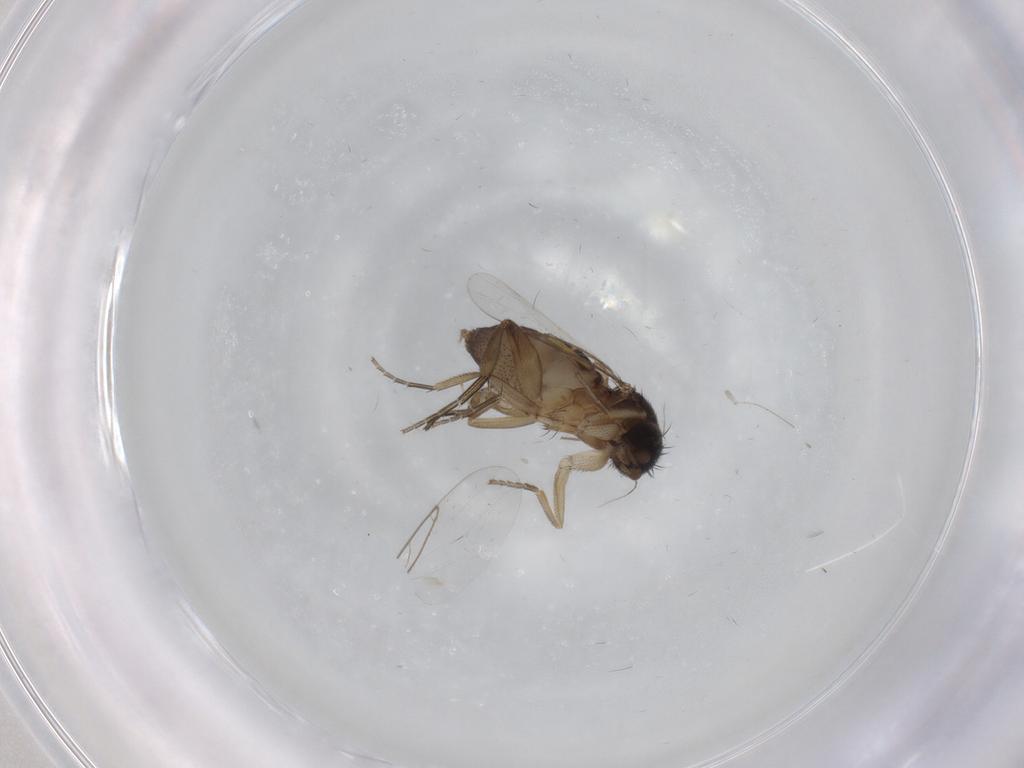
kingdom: Animalia
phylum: Arthropoda
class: Insecta
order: Diptera
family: Phoridae
